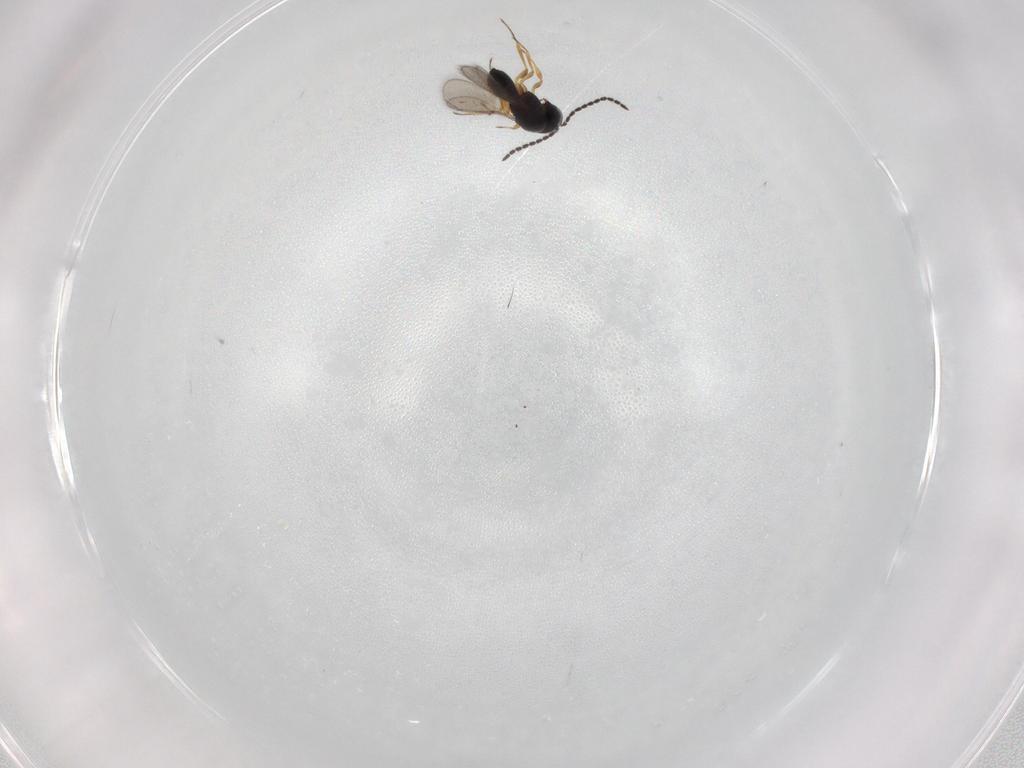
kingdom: Animalia
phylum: Arthropoda
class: Insecta
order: Hymenoptera
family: Scelionidae
